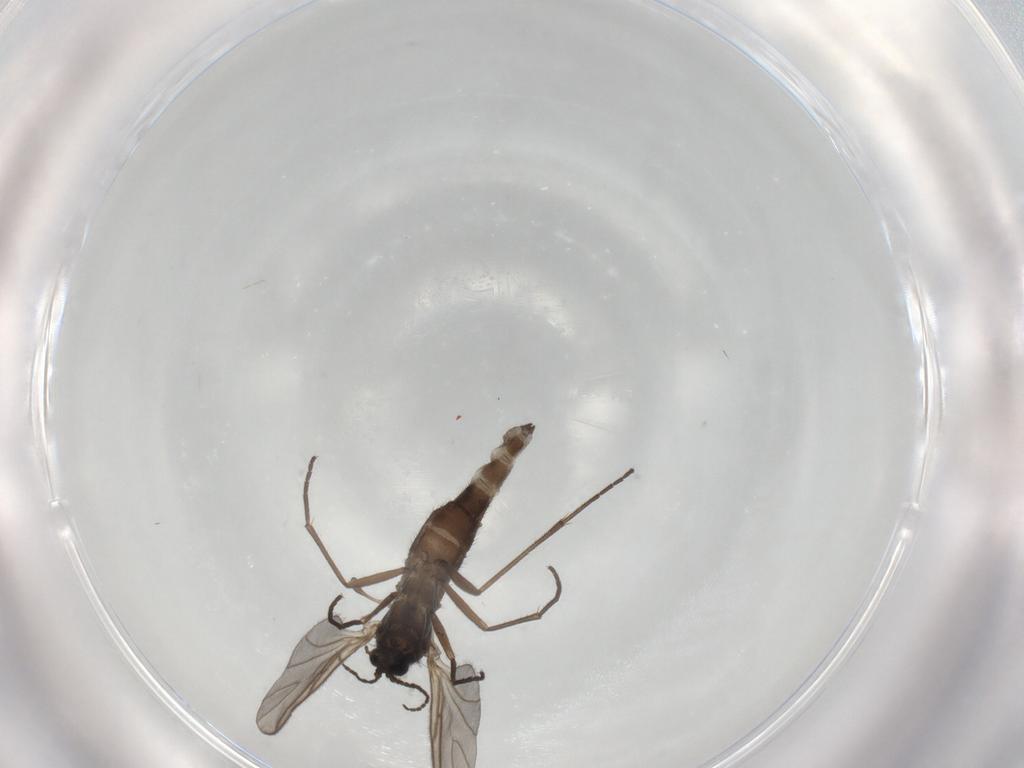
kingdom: Animalia
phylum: Arthropoda
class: Insecta
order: Diptera
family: Sciaridae
